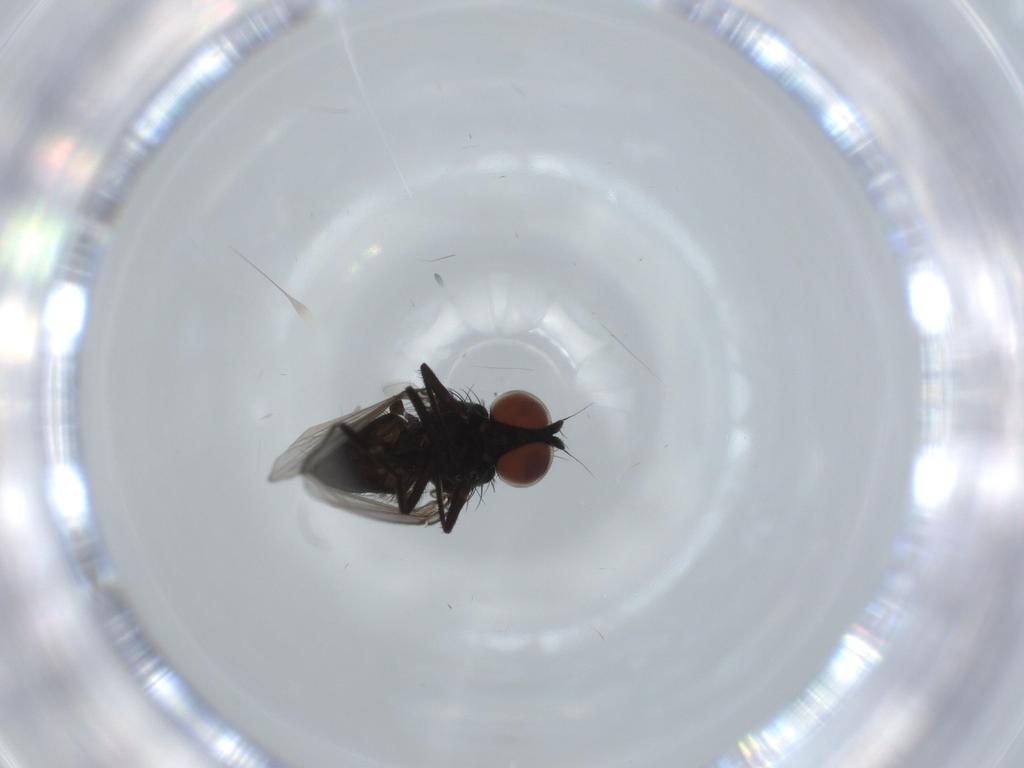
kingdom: Animalia
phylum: Arthropoda
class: Insecta
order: Diptera
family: Milichiidae
